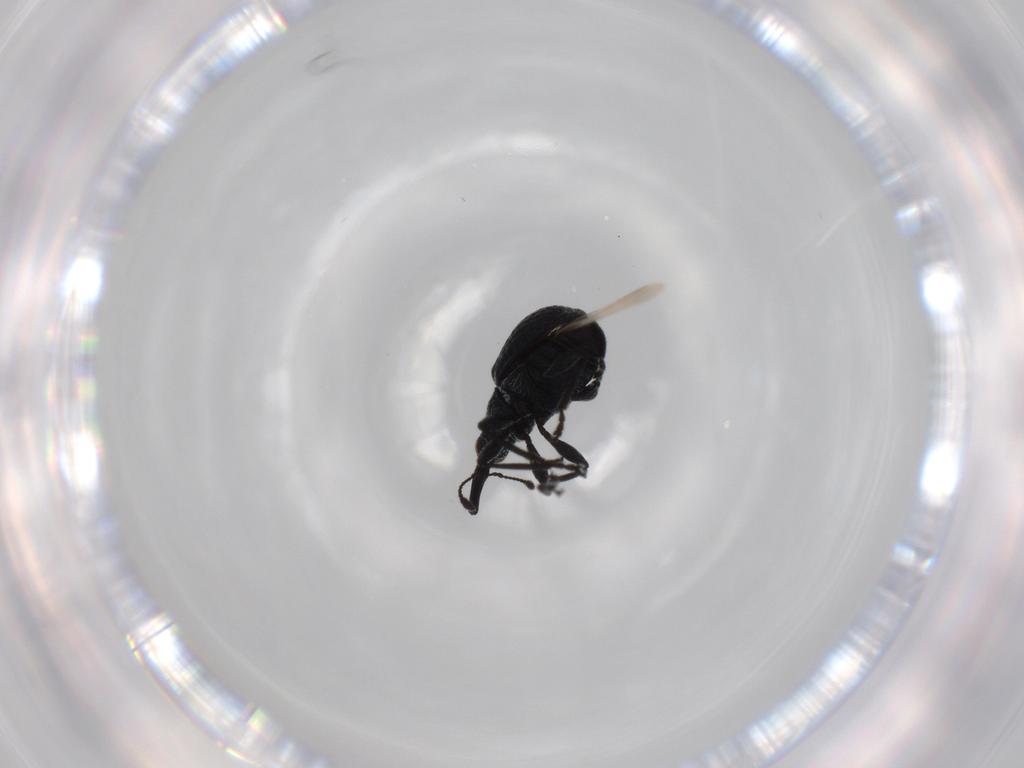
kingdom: Animalia
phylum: Arthropoda
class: Insecta
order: Coleoptera
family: Brentidae
